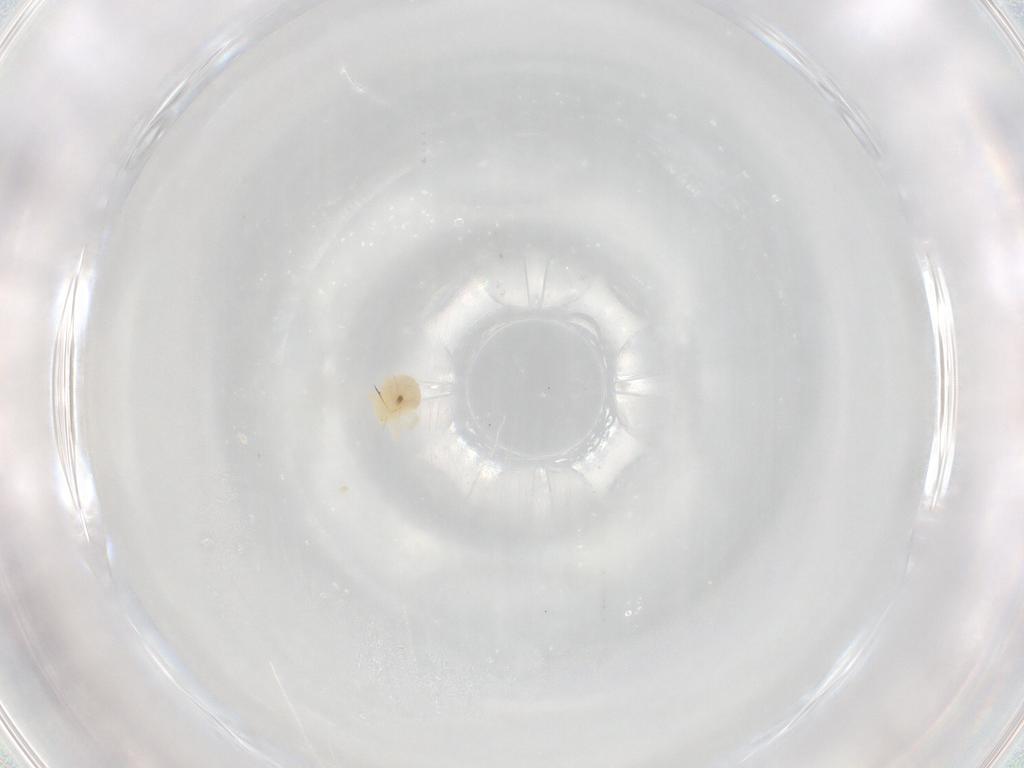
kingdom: Animalia
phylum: Arthropoda
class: Arachnida
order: Trombidiformes
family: Anystidae
